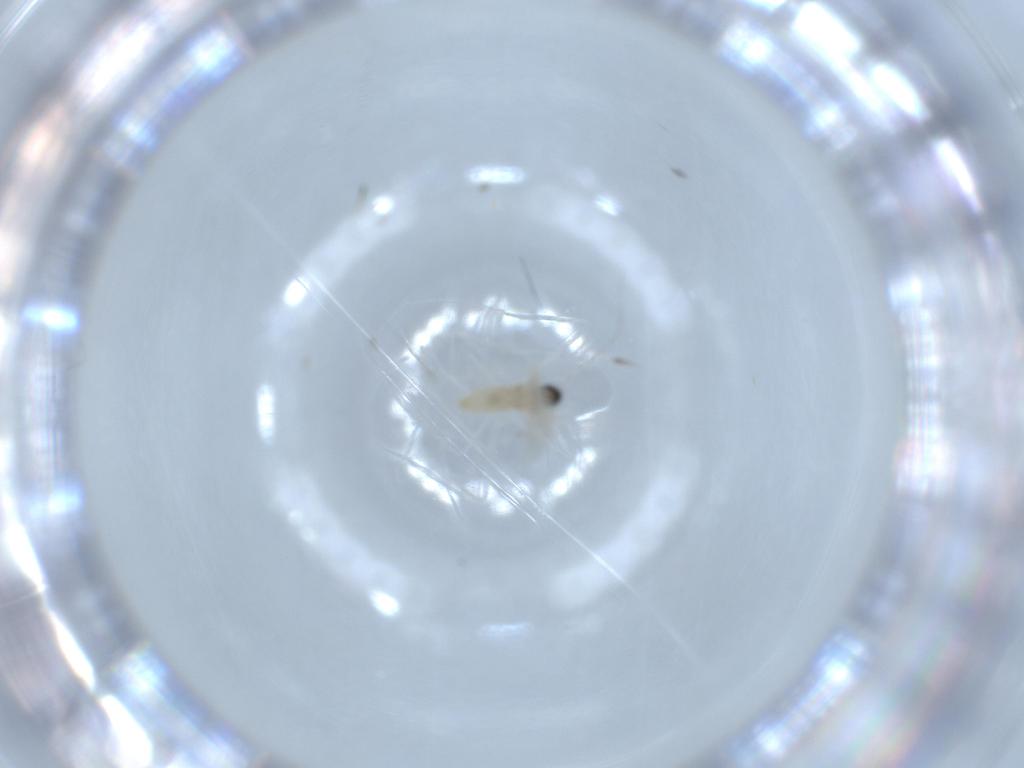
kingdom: Animalia
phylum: Arthropoda
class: Insecta
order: Diptera
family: Cecidomyiidae
